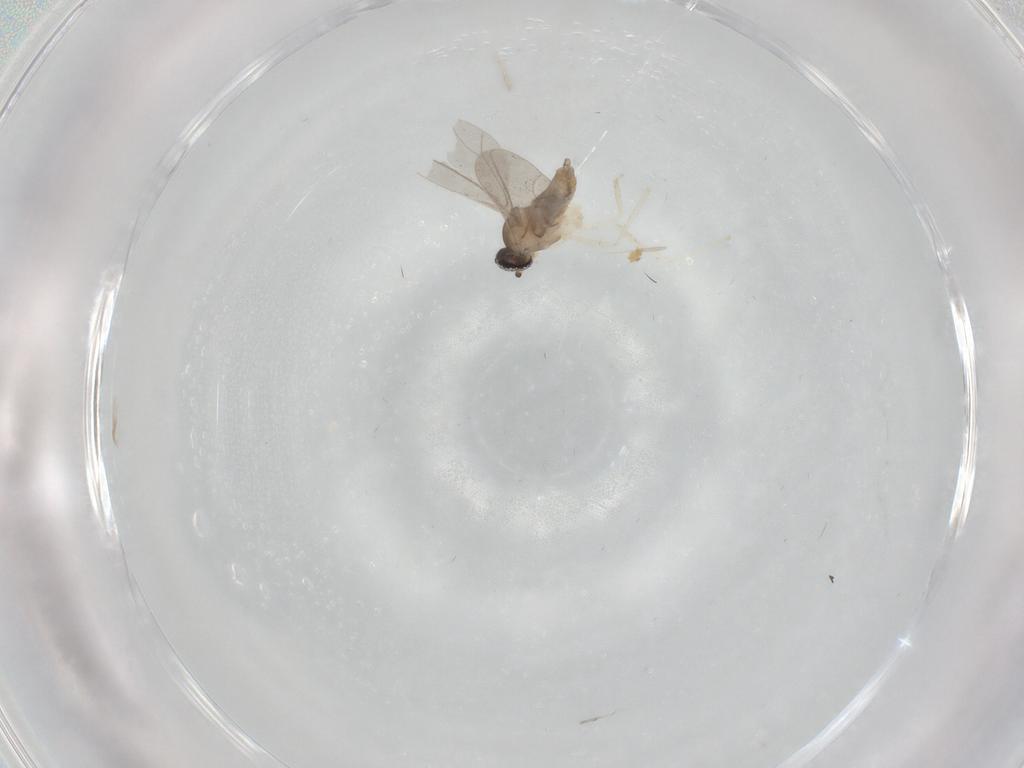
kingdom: Animalia
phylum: Arthropoda
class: Insecta
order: Diptera
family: Cecidomyiidae
